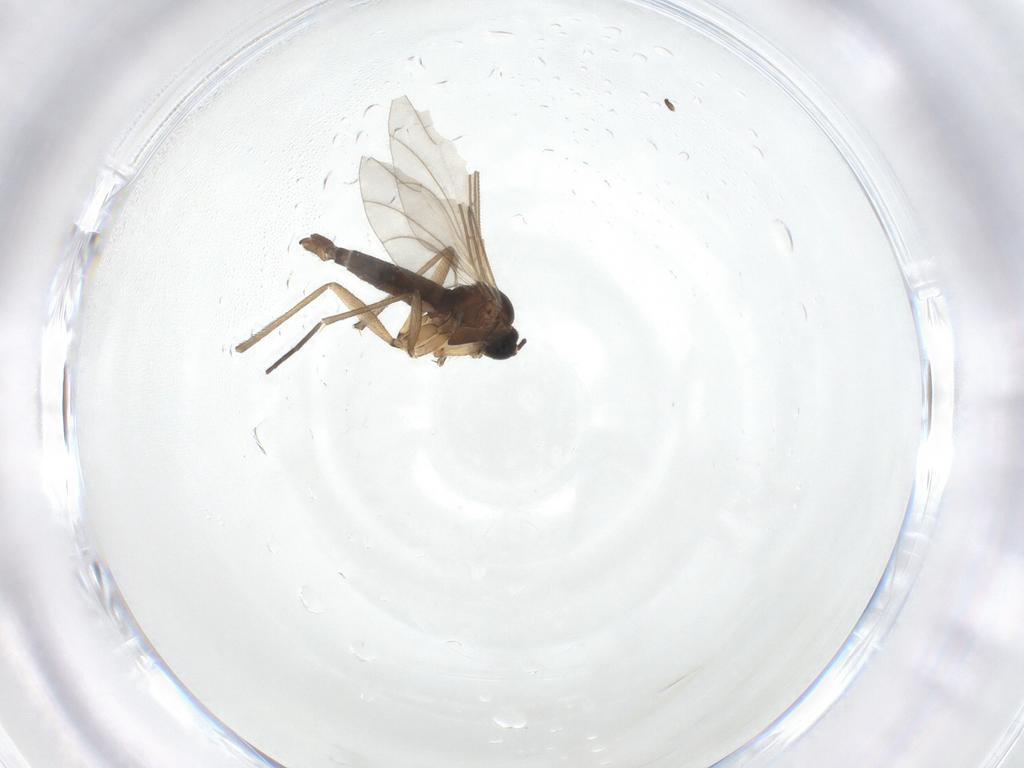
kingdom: Animalia
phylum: Arthropoda
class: Insecta
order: Diptera
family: Sciaridae
